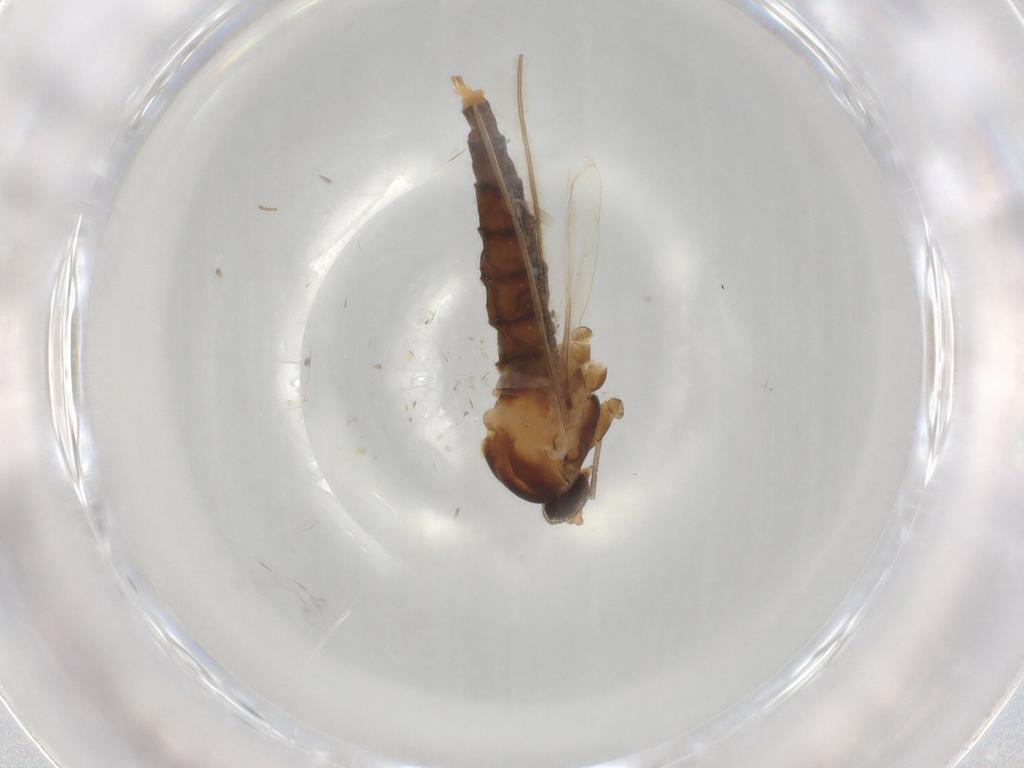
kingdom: Animalia
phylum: Arthropoda
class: Insecta
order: Diptera
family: Cecidomyiidae
